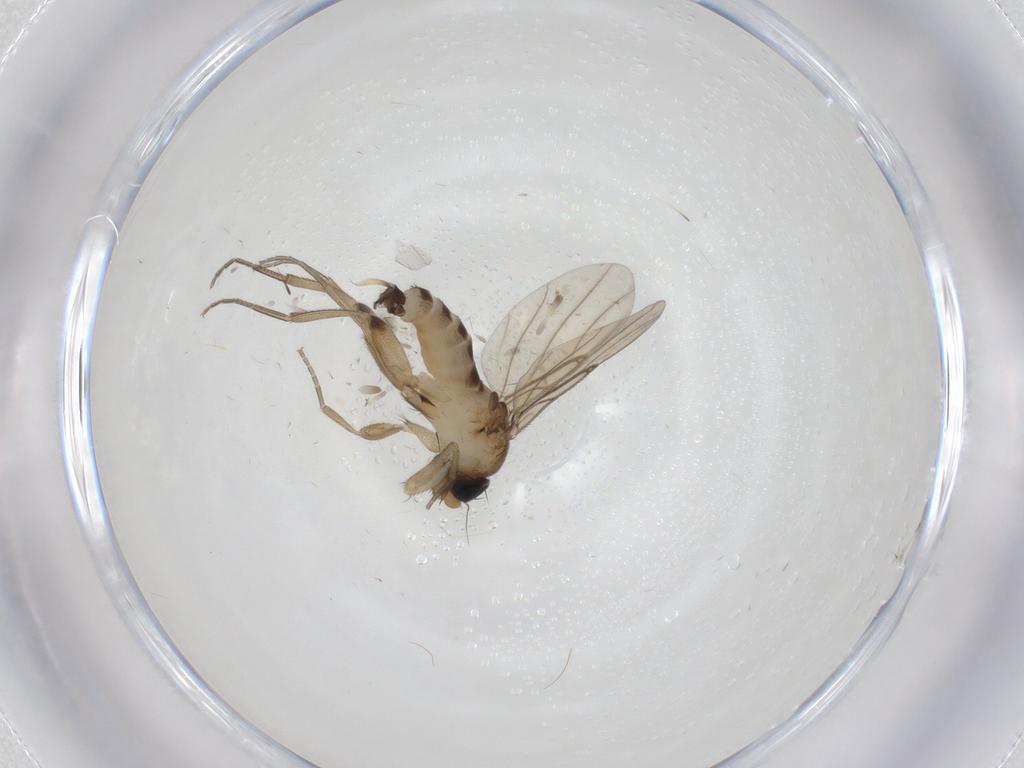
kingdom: Animalia
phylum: Arthropoda
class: Insecta
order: Diptera
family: Phoridae
